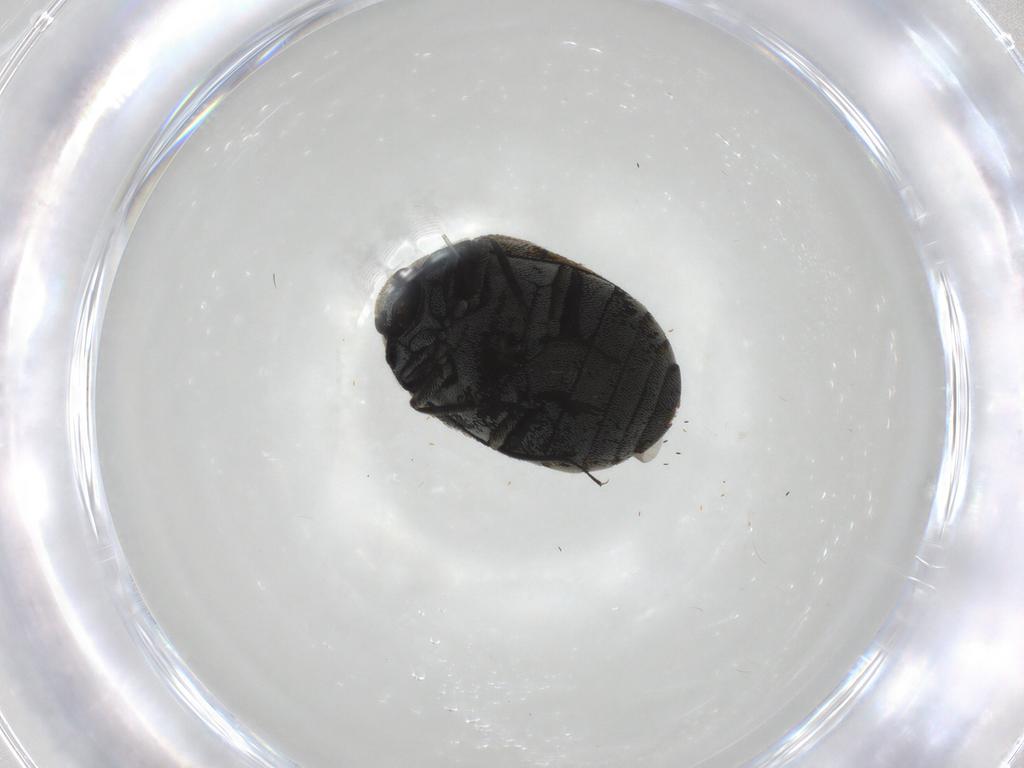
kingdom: Animalia
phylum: Arthropoda
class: Insecta
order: Coleoptera
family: Dermestidae
